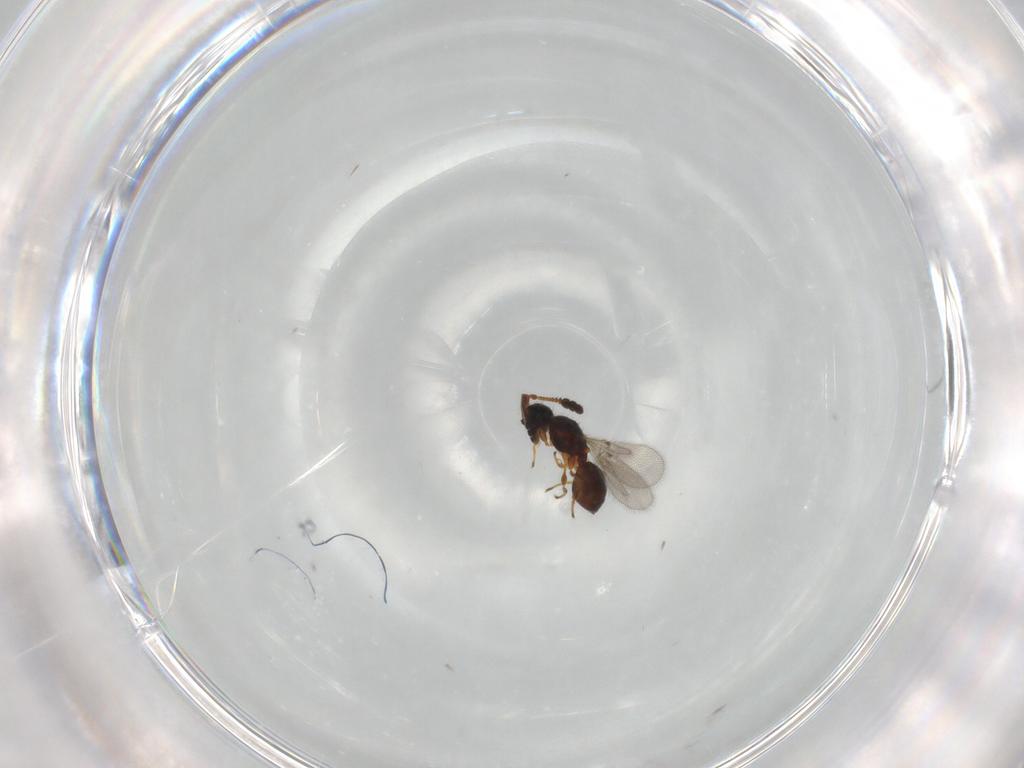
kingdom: Animalia
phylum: Arthropoda
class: Insecta
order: Hymenoptera
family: Diapriidae
